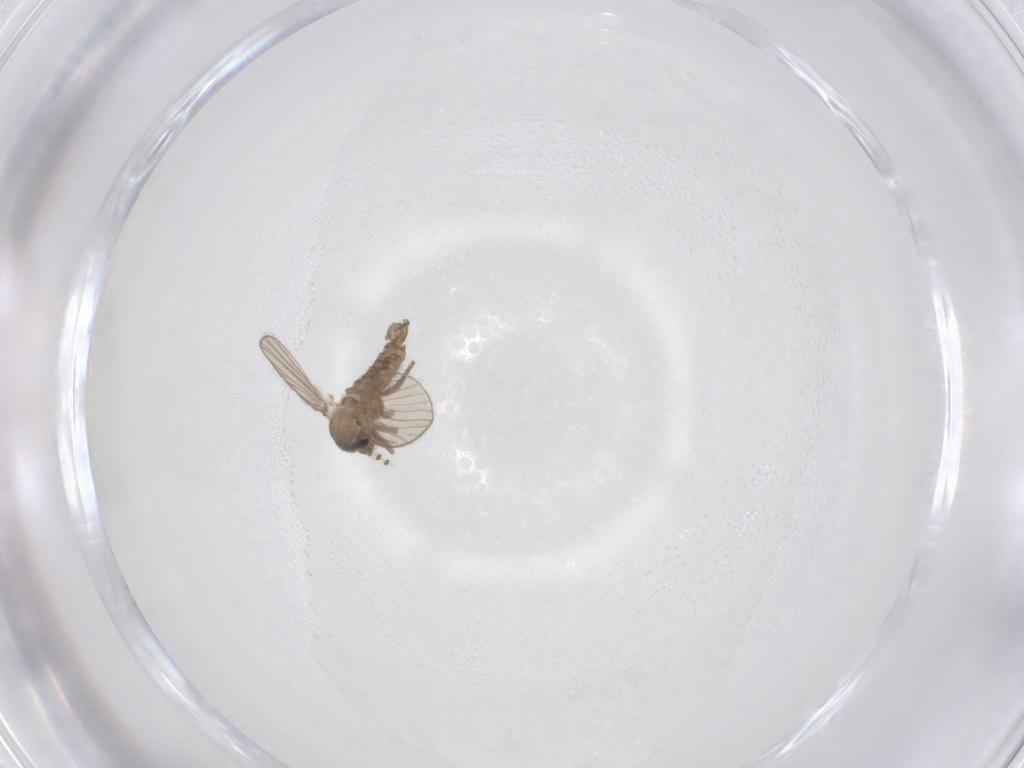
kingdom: Animalia
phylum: Arthropoda
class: Insecta
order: Diptera
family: Psychodidae
